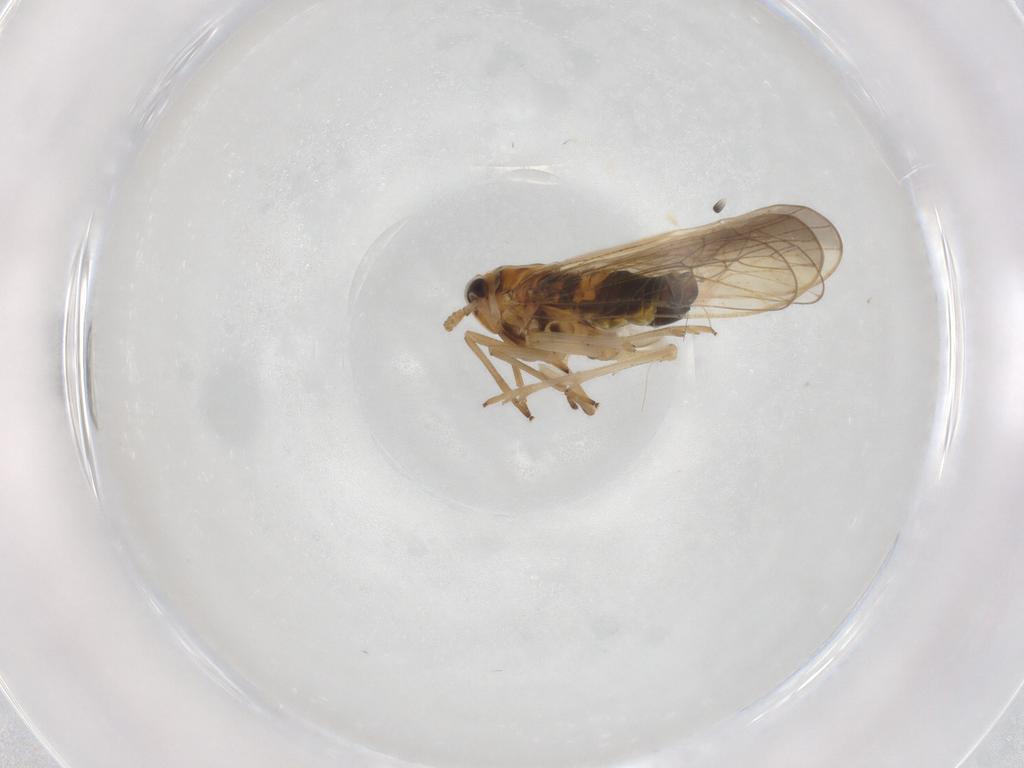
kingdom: Animalia
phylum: Arthropoda
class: Insecta
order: Hemiptera
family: Delphacidae
